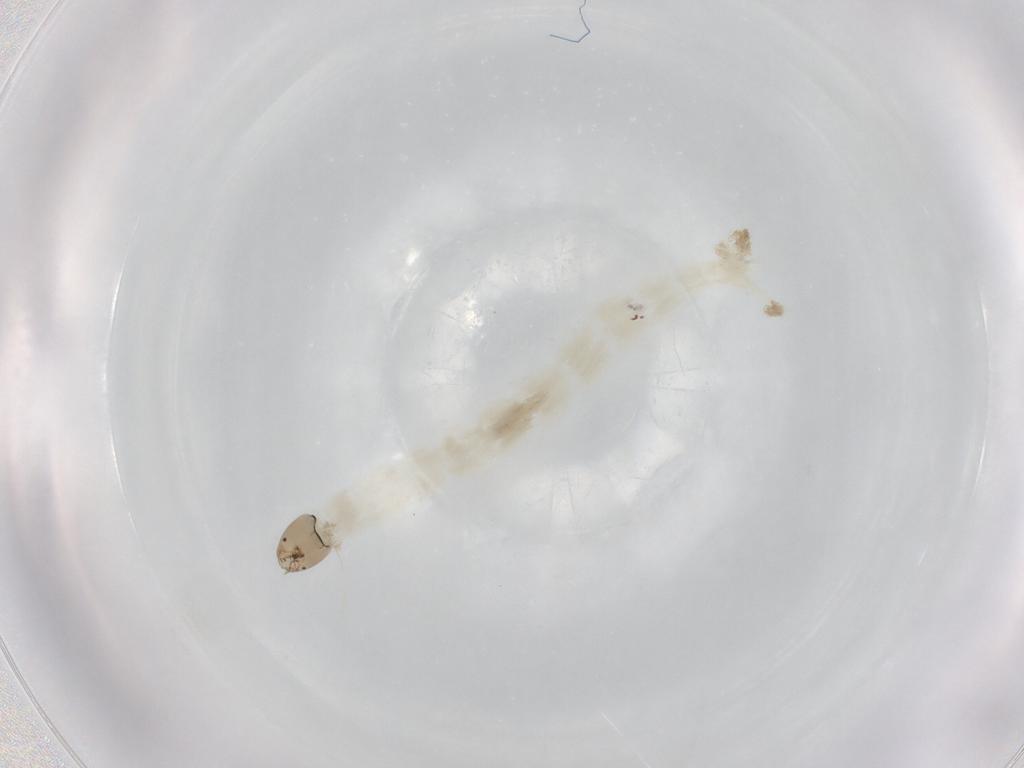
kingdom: Animalia
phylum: Arthropoda
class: Insecta
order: Diptera
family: Chironomidae
